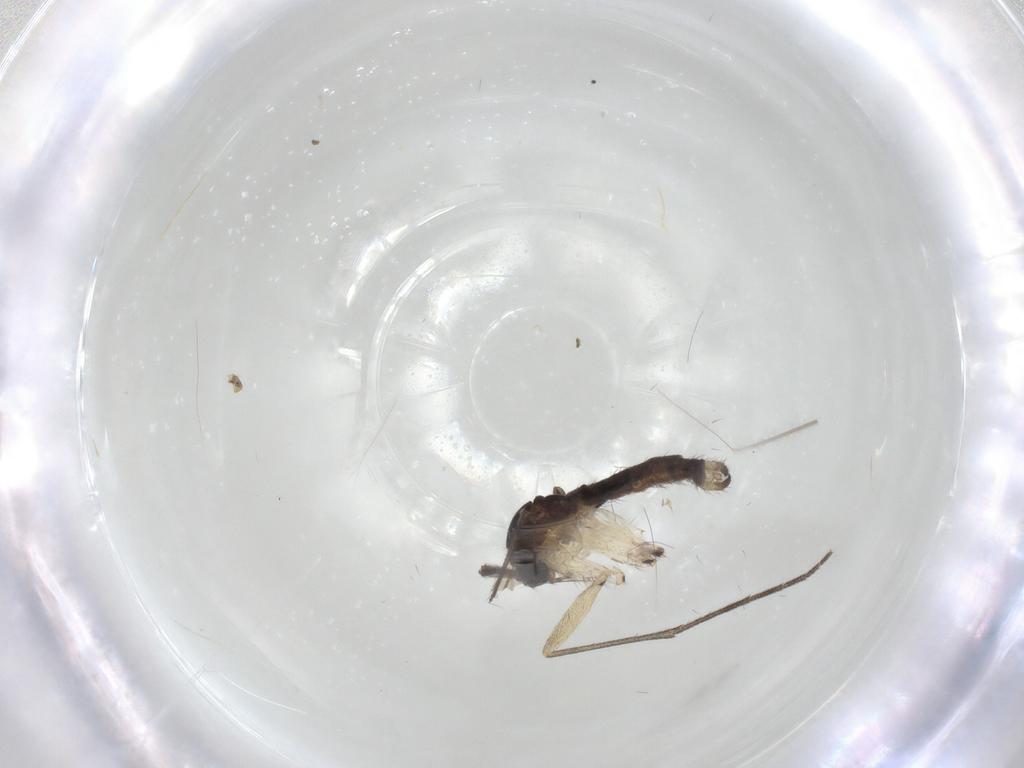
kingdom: Animalia
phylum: Arthropoda
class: Insecta
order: Diptera
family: Sciaridae
